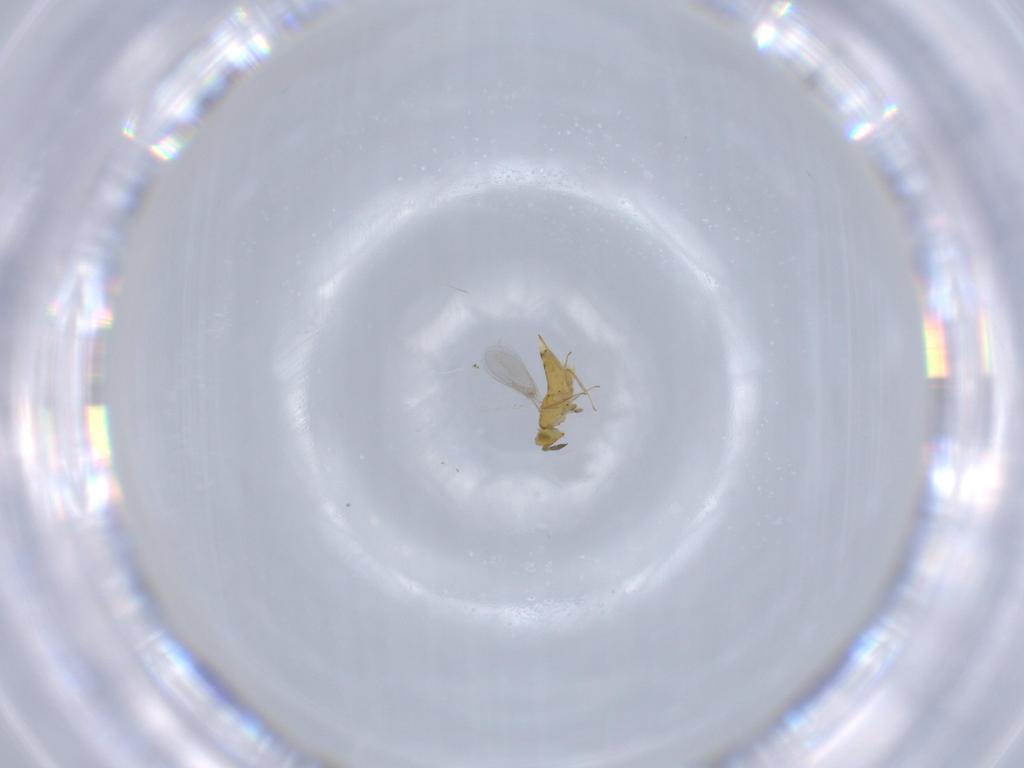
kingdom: Animalia
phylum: Arthropoda
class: Insecta
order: Hymenoptera
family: Aphelinidae
